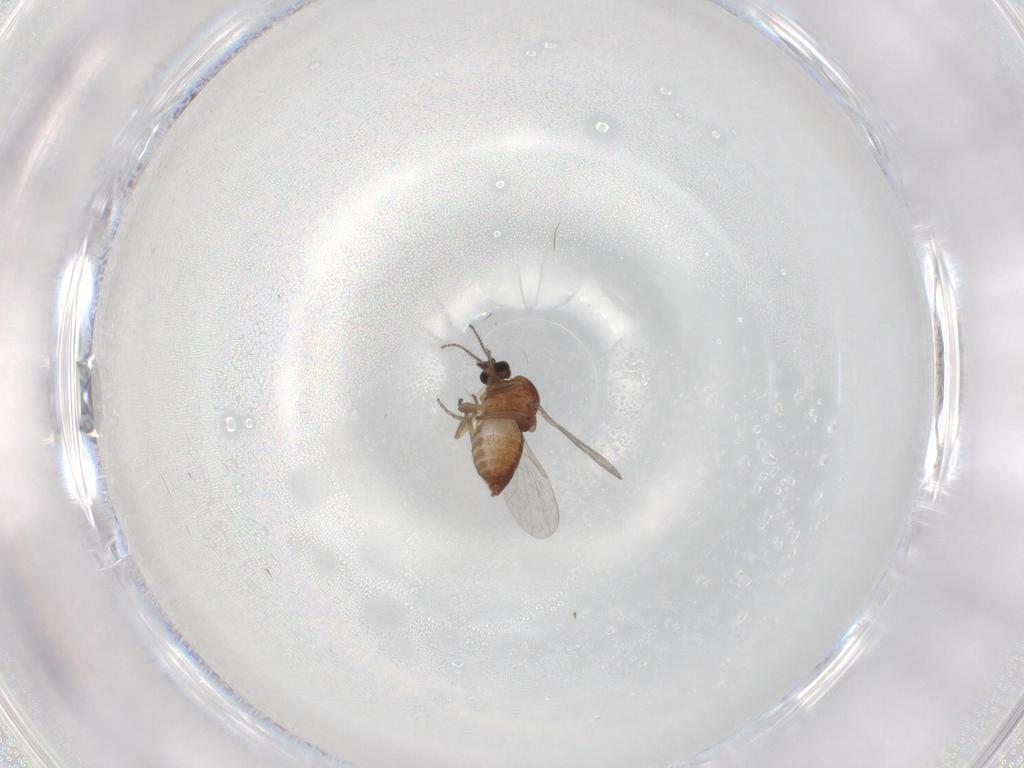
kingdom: Animalia
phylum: Arthropoda
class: Insecta
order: Diptera
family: Ceratopogonidae
